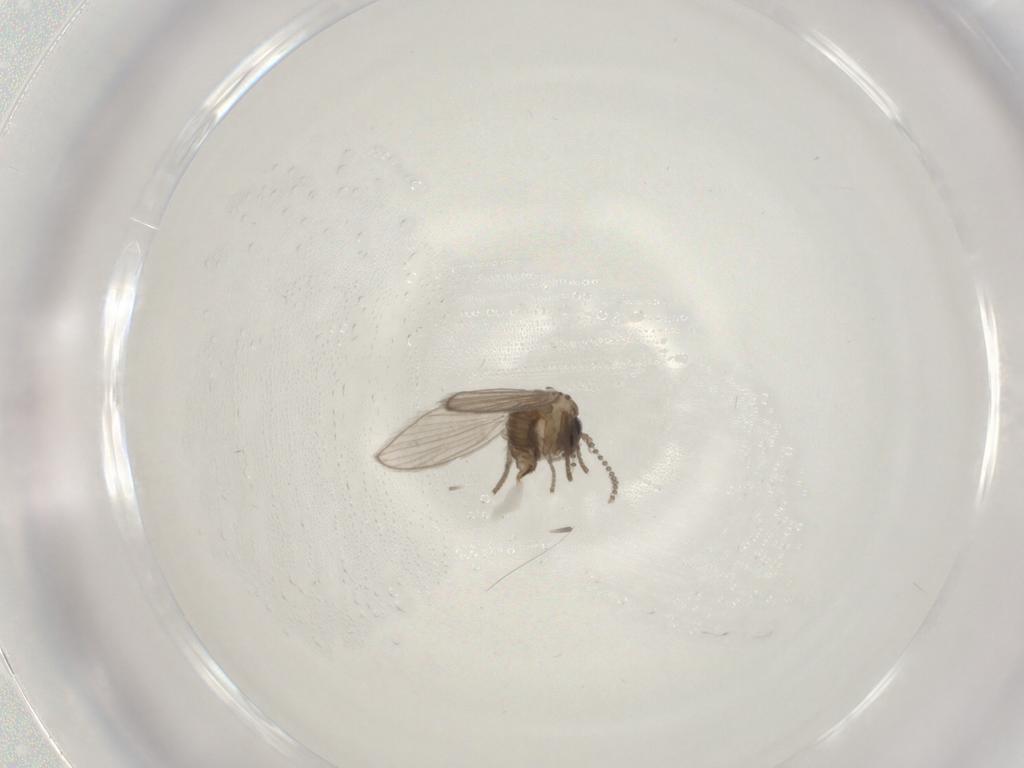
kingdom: Animalia
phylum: Arthropoda
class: Insecta
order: Diptera
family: Psychodidae
